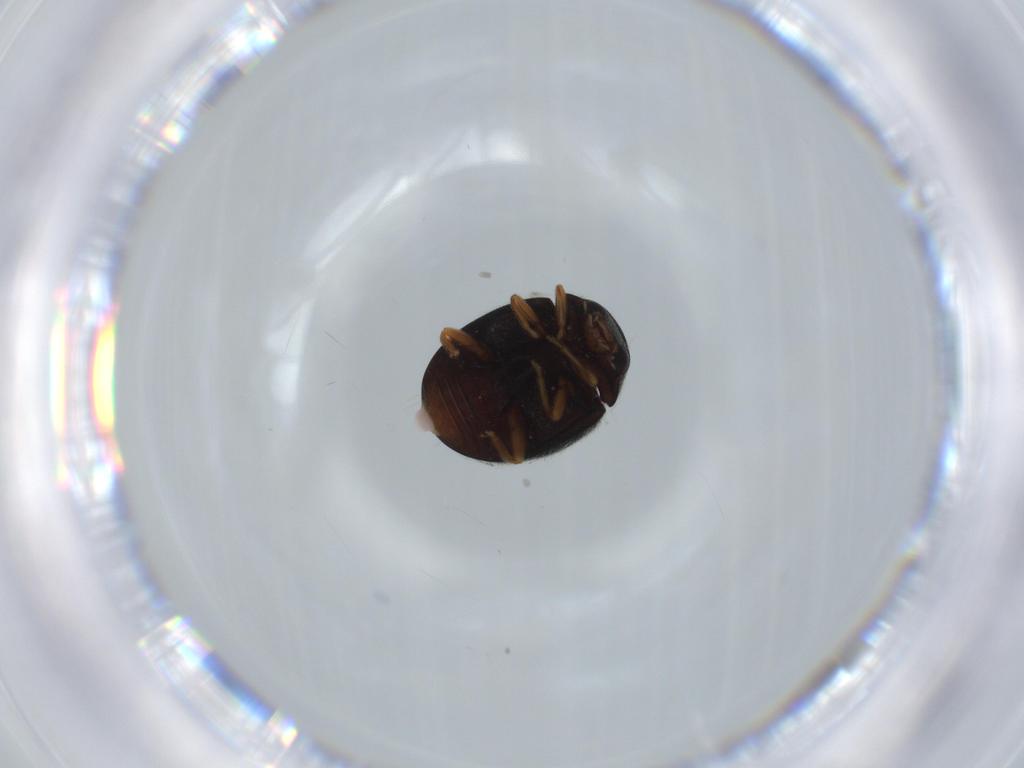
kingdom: Animalia
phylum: Arthropoda
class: Insecta
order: Coleoptera
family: Coccinellidae
